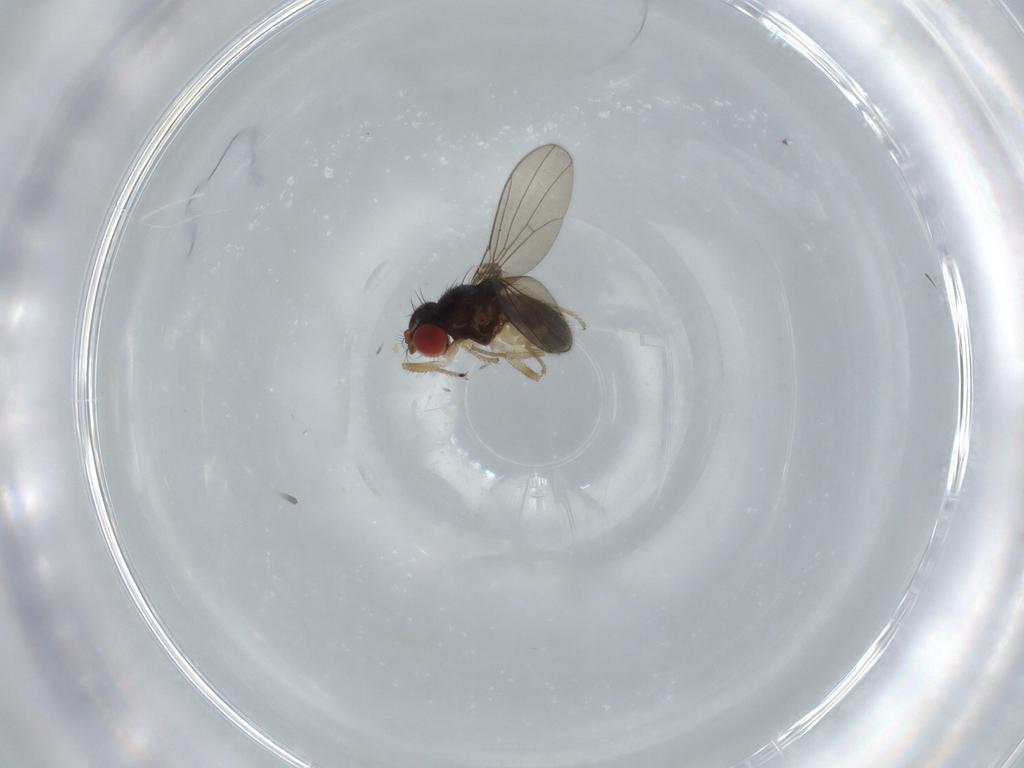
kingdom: Animalia
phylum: Arthropoda
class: Insecta
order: Diptera
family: Drosophilidae
